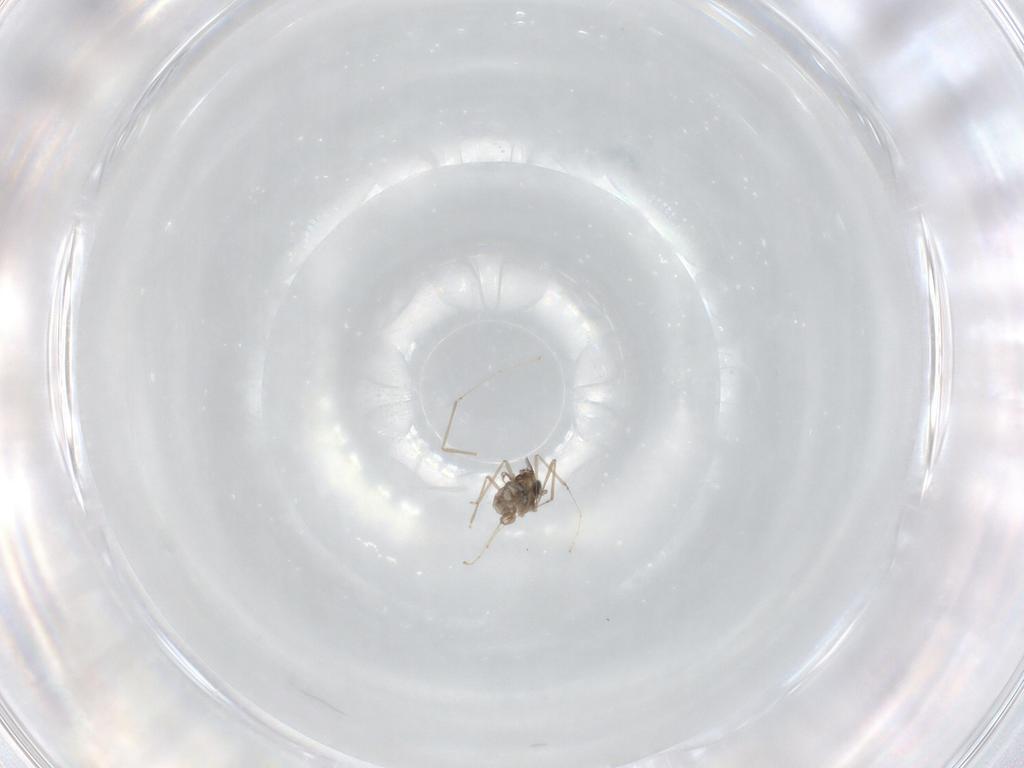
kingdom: Animalia
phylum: Arthropoda
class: Insecta
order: Diptera
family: Cecidomyiidae
